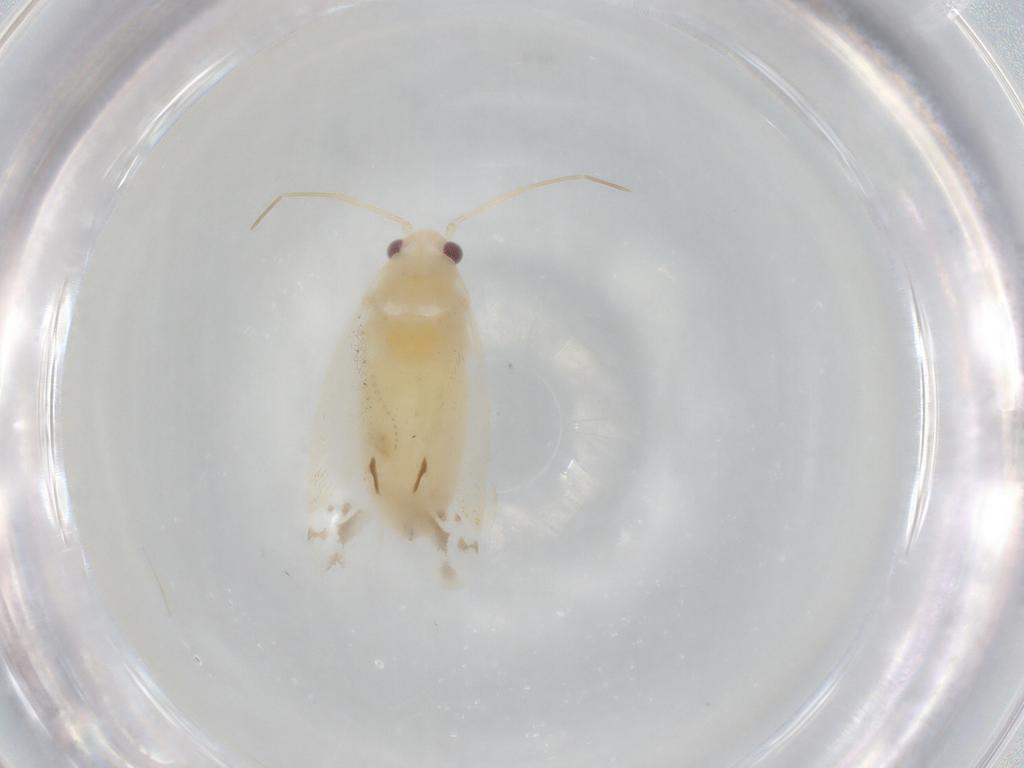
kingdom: Animalia
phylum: Arthropoda
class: Insecta
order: Hemiptera
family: Miridae
